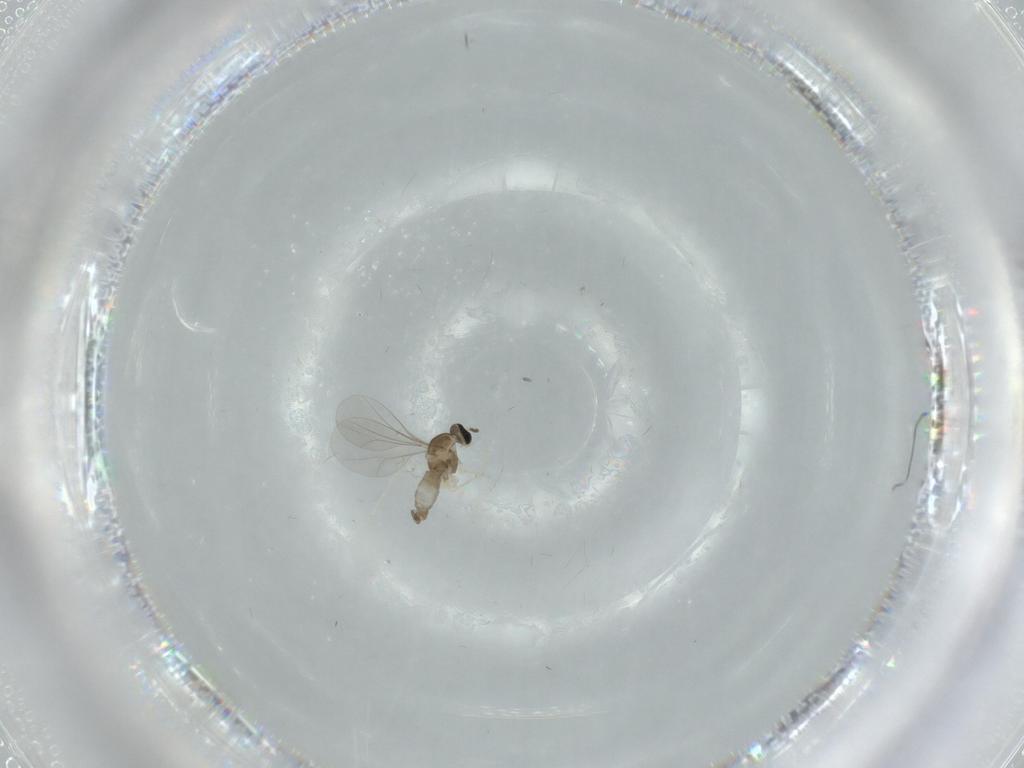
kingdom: Animalia
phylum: Arthropoda
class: Insecta
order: Diptera
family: Cecidomyiidae
